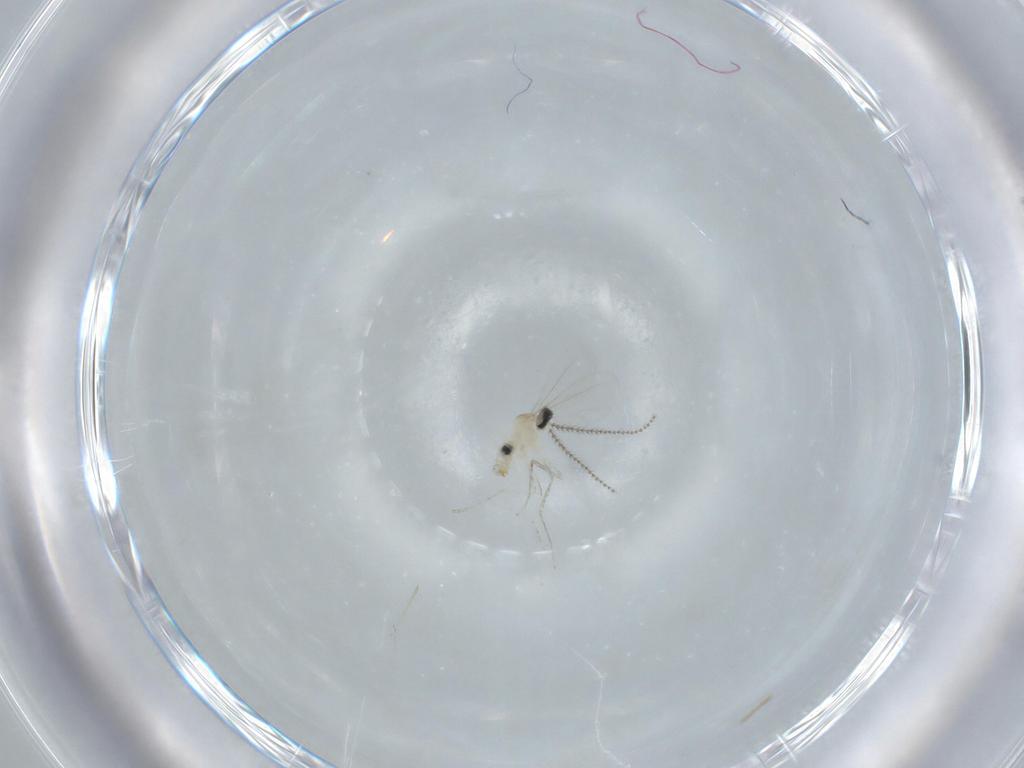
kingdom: Animalia
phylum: Arthropoda
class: Insecta
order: Diptera
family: Cecidomyiidae
